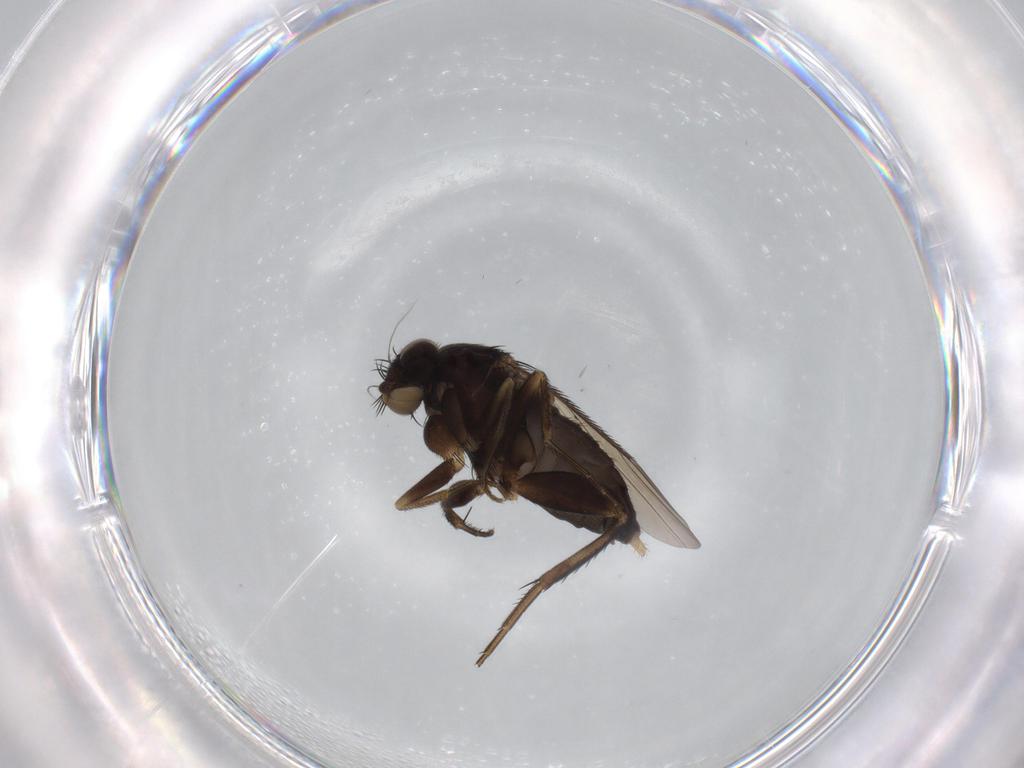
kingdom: Animalia
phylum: Arthropoda
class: Insecta
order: Diptera
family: Phoridae
